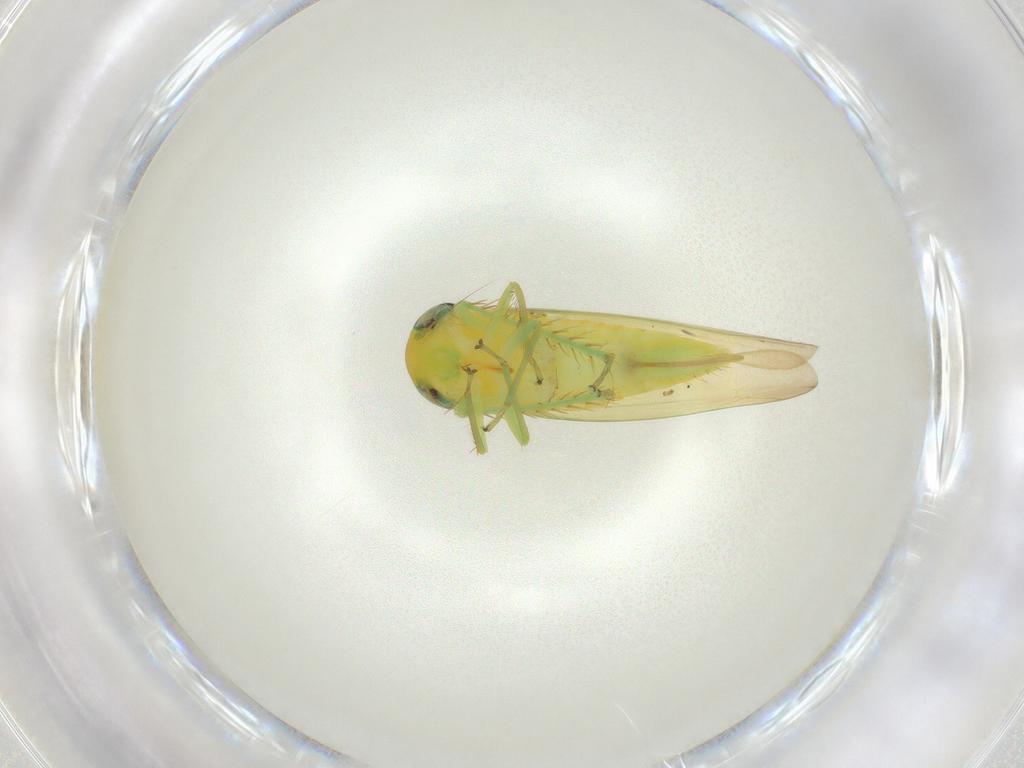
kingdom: Animalia
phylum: Arthropoda
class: Insecta
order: Hemiptera
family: Cicadellidae
